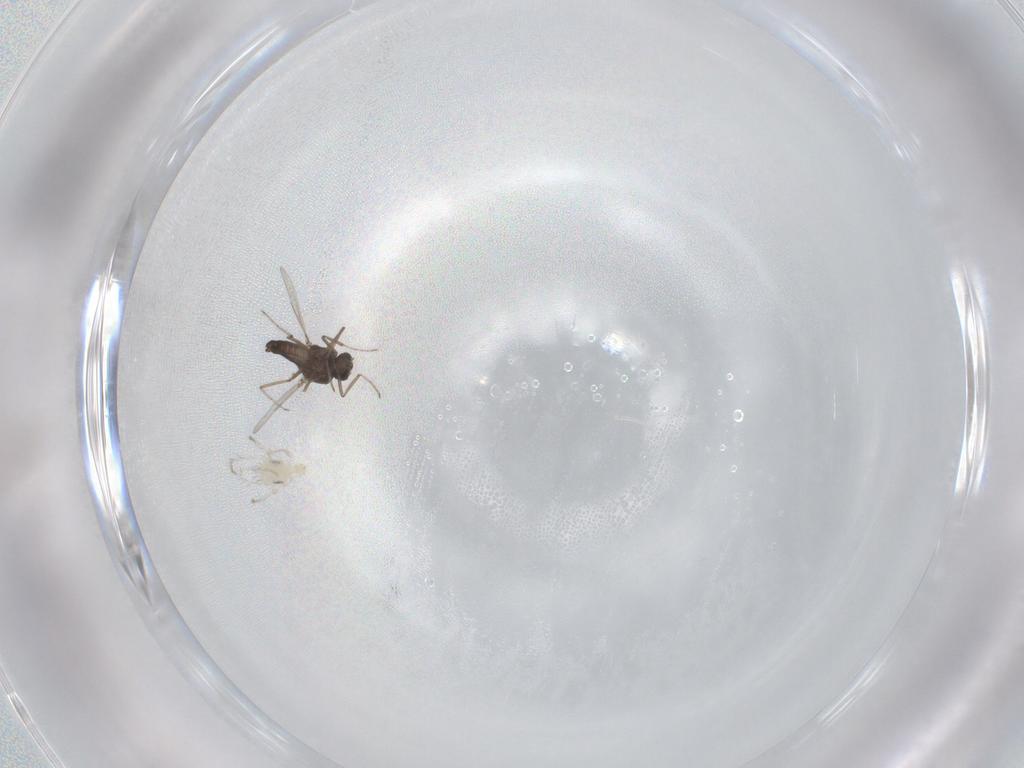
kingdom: Animalia
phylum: Arthropoda
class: Insecta
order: Diptera
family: Ceratopogonidae
